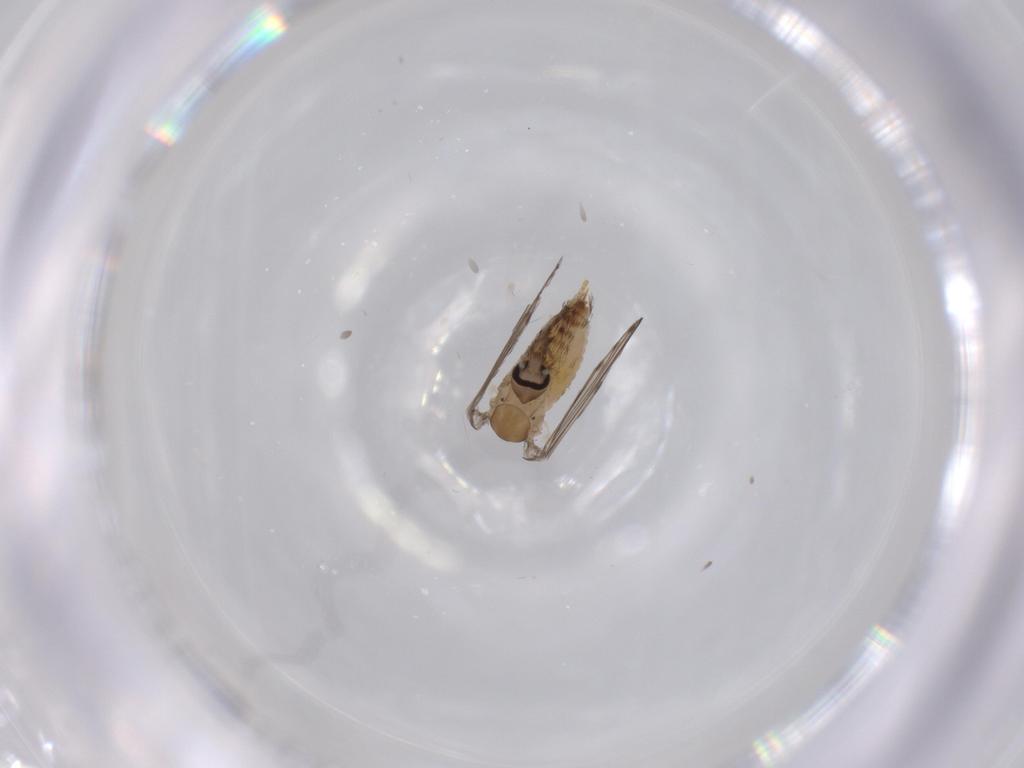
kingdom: Animalia
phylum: Arthropoda
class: Insecta
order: Diptera
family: Psychodidae
